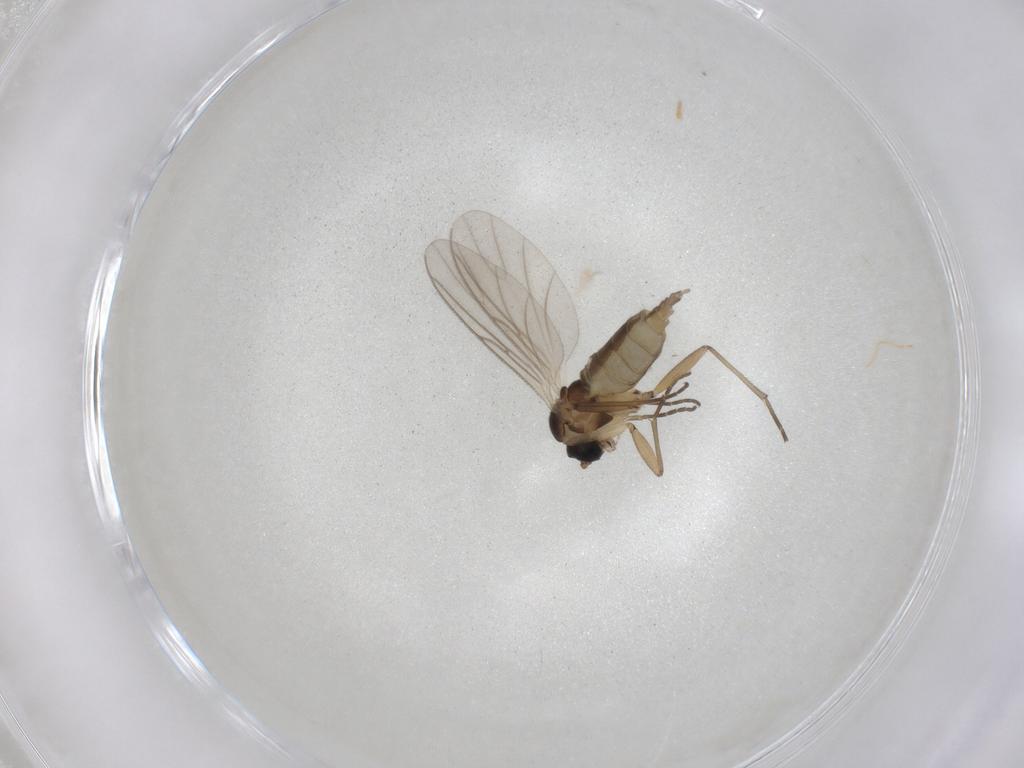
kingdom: Animalia
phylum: Arthropoda
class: Insecta
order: Diptera
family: Culicidae
